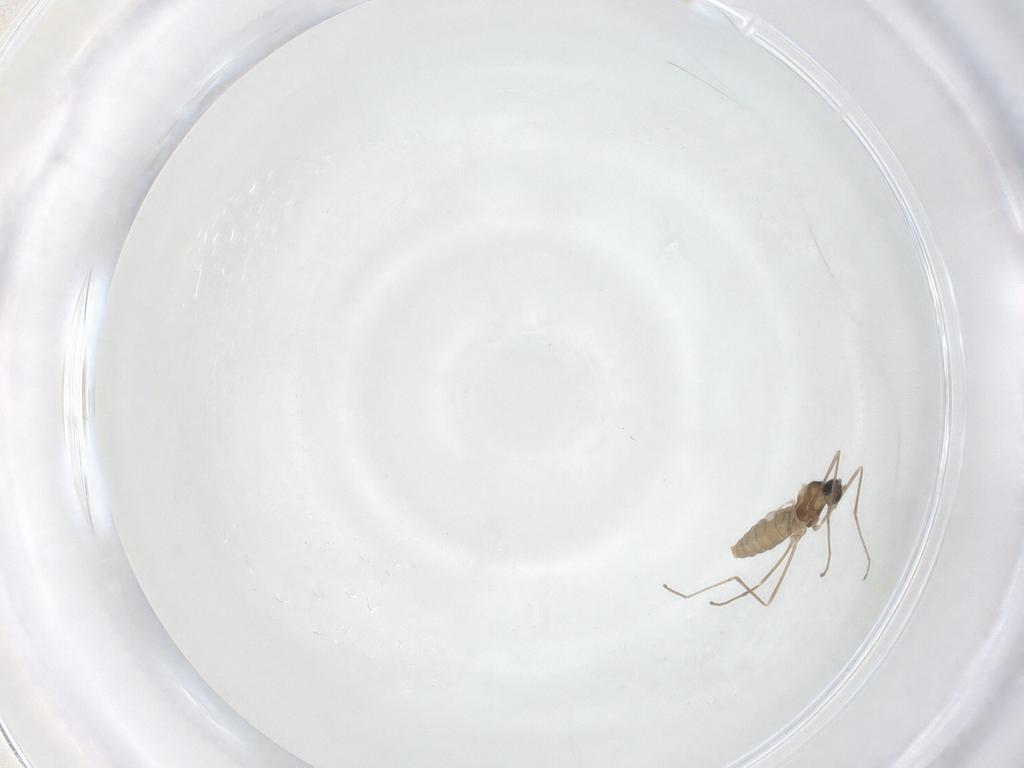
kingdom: Animalia
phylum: Arthropoda
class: Insecta
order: Diptera
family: Cecidomyiidae
